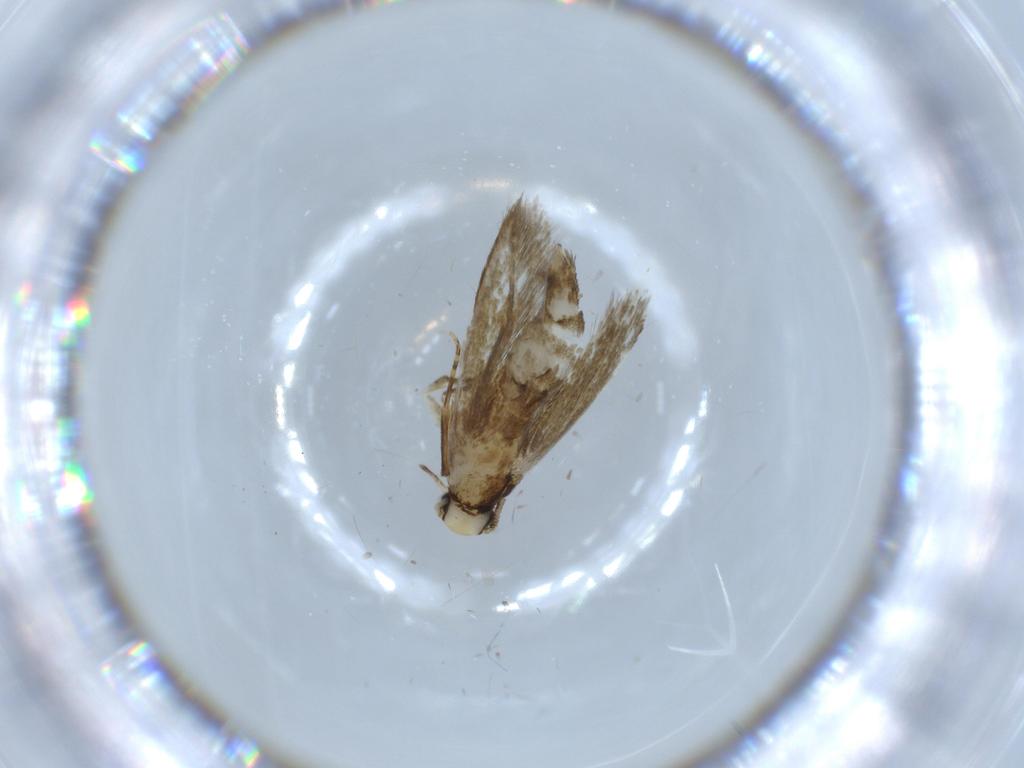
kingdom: Animalia
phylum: Arthropoda
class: Insecta
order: Lepidoptera
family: Tineidae
